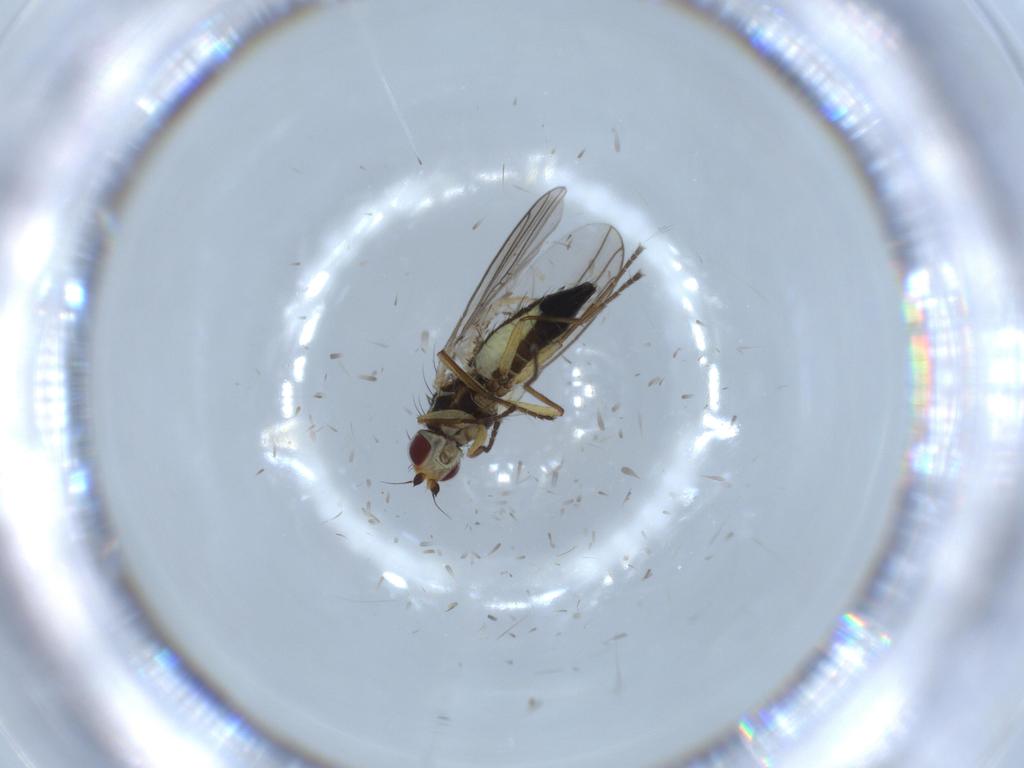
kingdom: Animalia
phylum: Arthropoda
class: Insecta
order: Diptera
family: Agromyzidae
